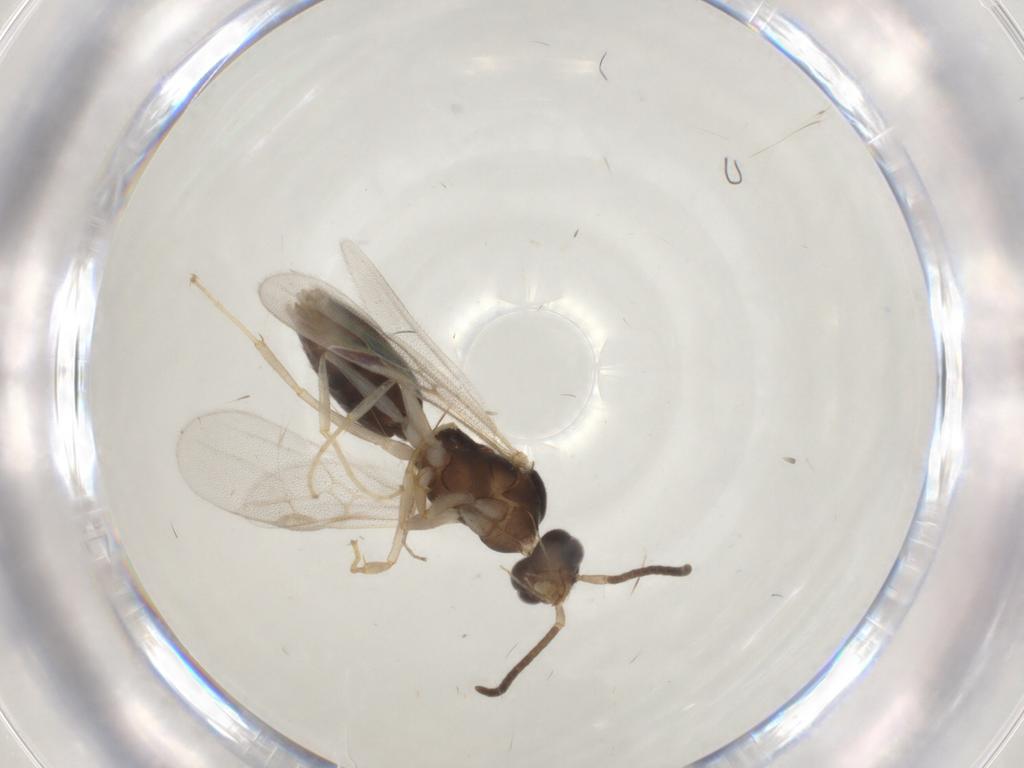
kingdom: Animalia
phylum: Arthropoda
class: Insecta
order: Hymenoptera
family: Formicidae
